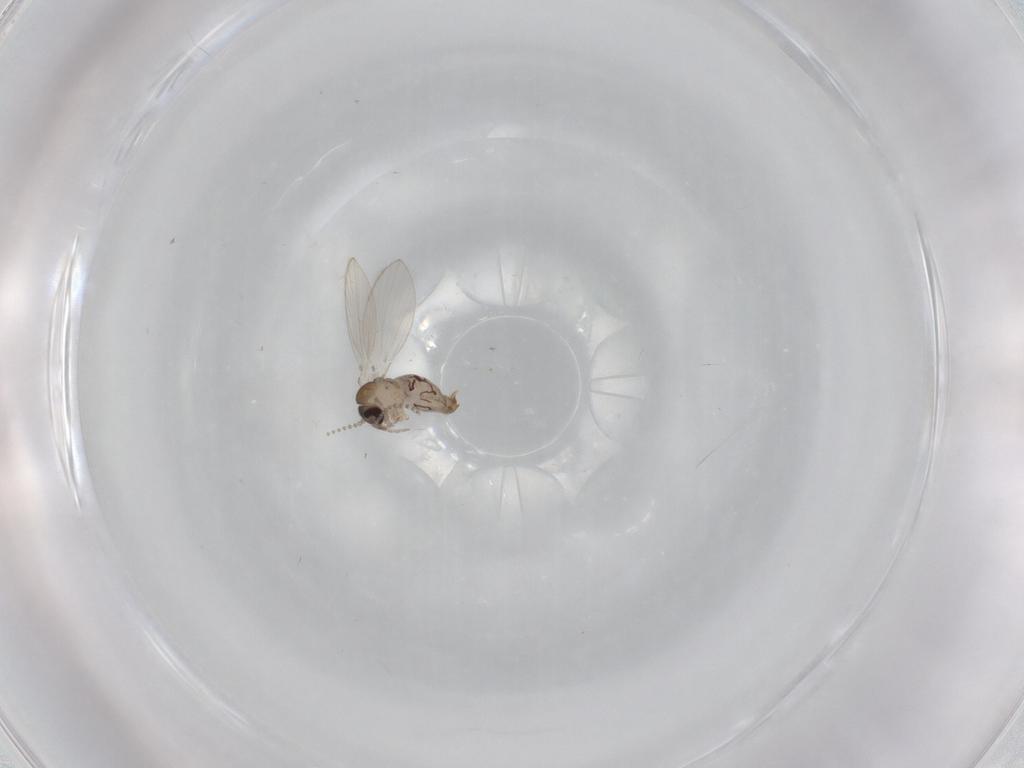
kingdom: Animalia
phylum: Arthropoda
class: Insecta
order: Diptera
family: Psychodidae
